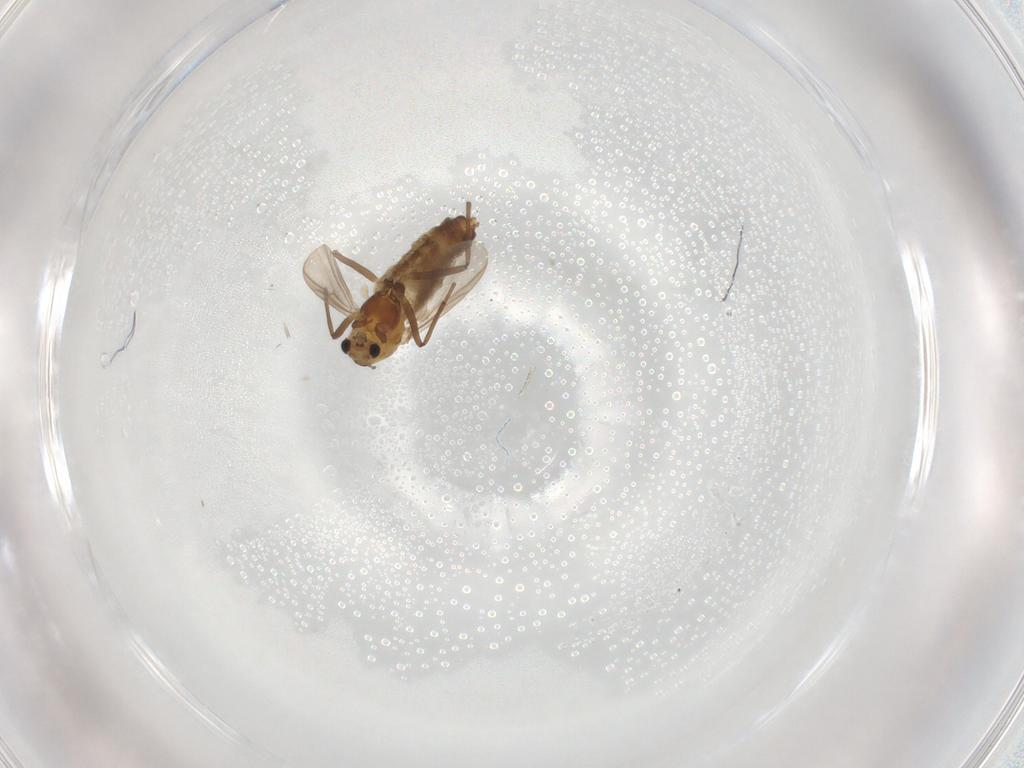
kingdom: Animalia
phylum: Arthropoda
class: Insecta
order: Diptera
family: Chironomidae
